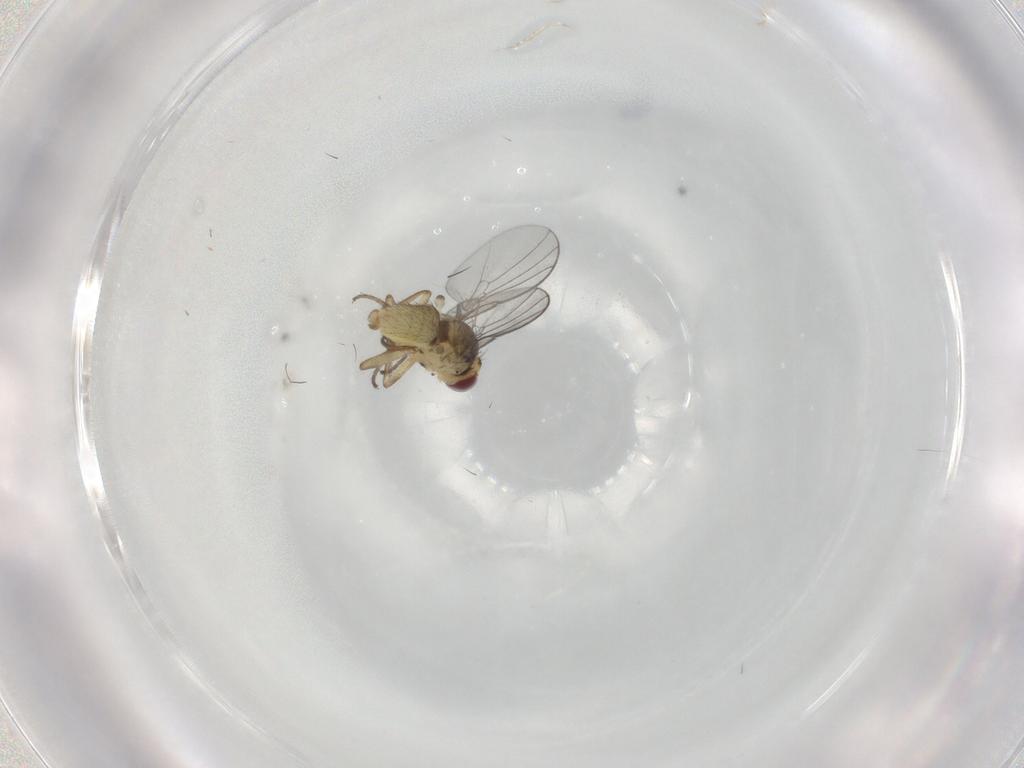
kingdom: Animalia
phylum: Arthropoda
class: Insecta
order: Diptera
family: Agromyzidae
